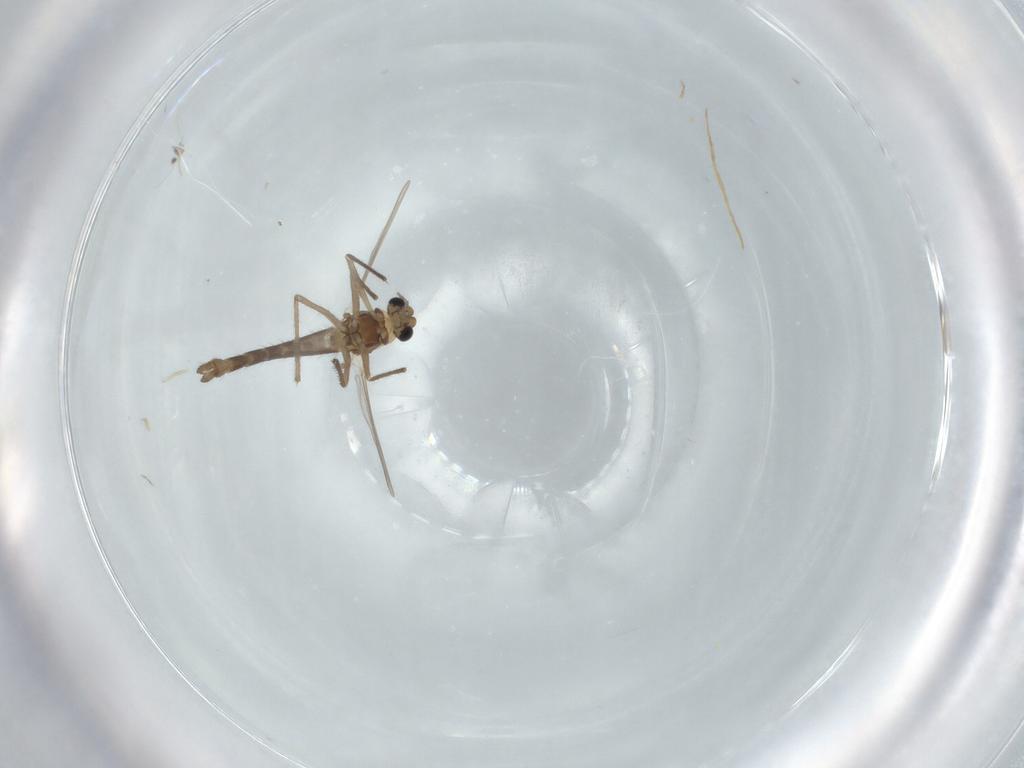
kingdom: Animalia
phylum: Arthropoda
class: Insecta
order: Diptera
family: Chironomidae
